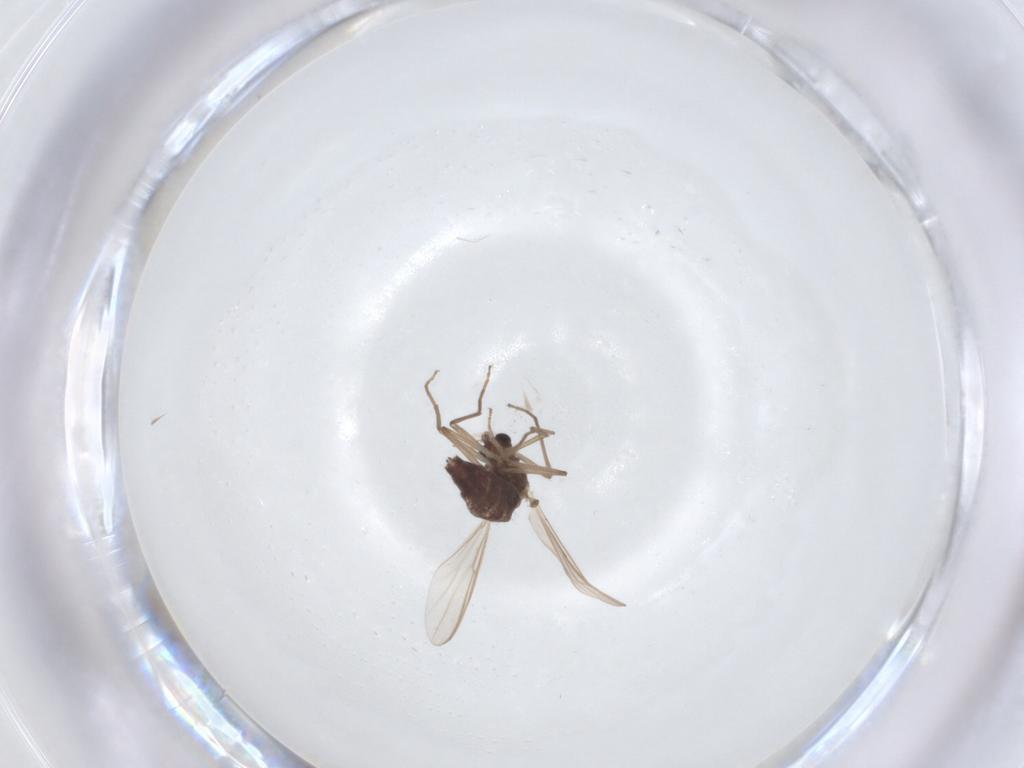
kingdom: Animalia
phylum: Arthropoda
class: Insecta
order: Diptera
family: Chironomidae
